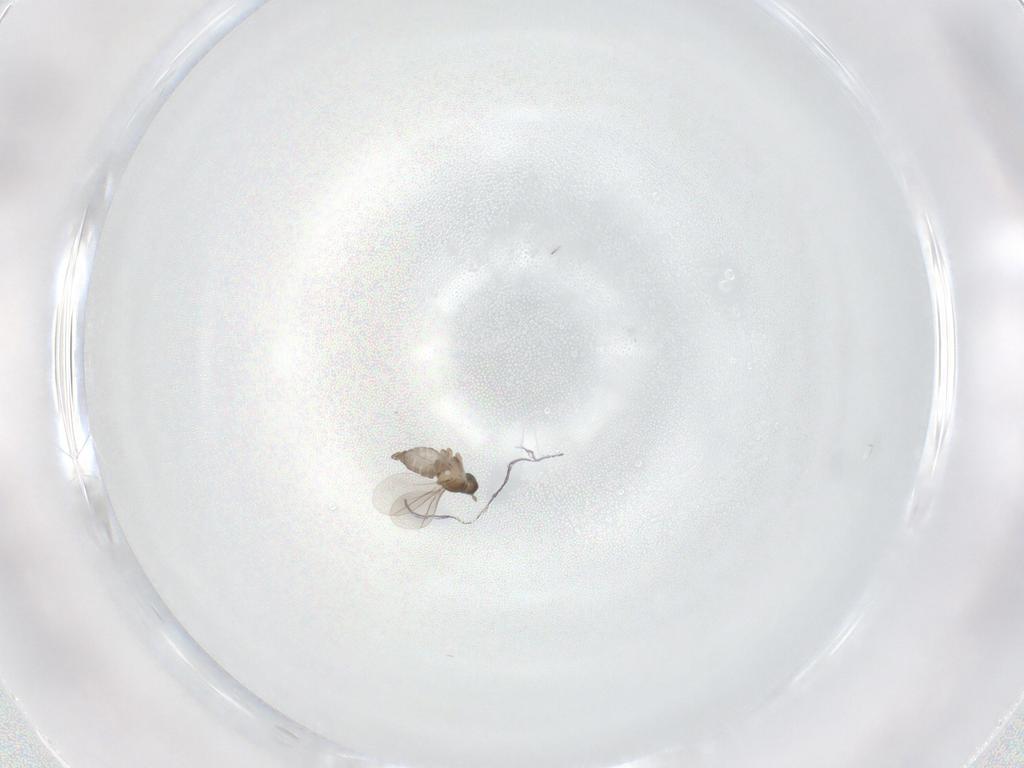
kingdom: Animalia
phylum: Arthropoda
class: Insecta
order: Diptera
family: Cecidomyiidae
